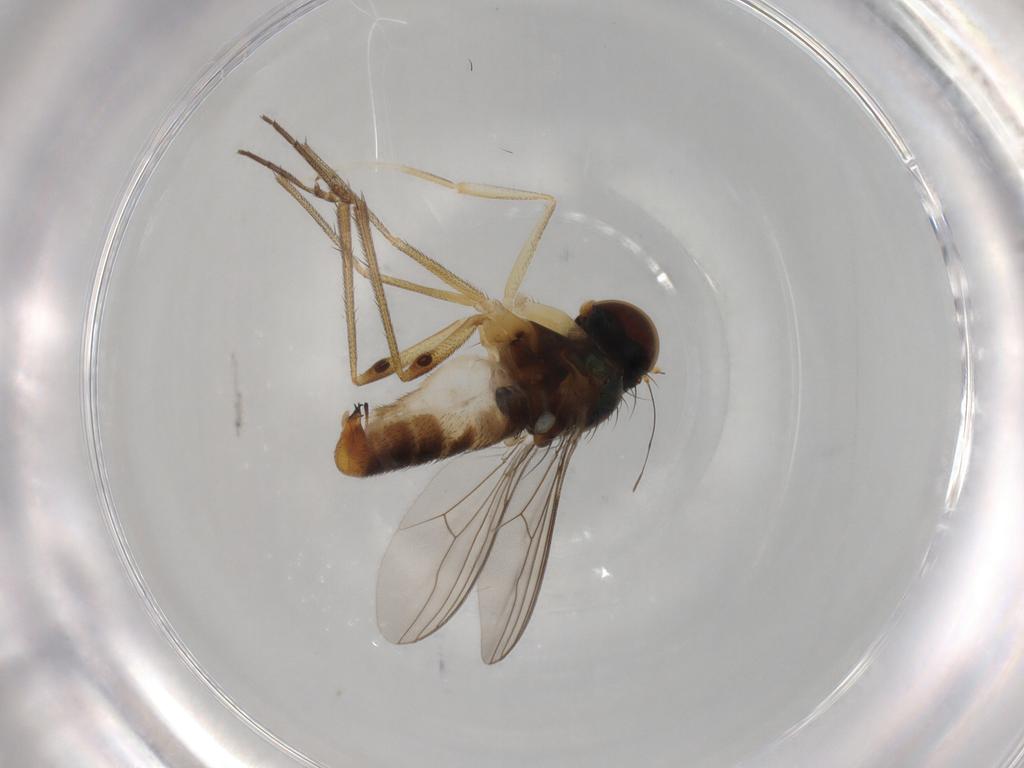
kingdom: Animalia
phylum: Arthropoda
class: Insecta
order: Diptera
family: Dolichopodidae
